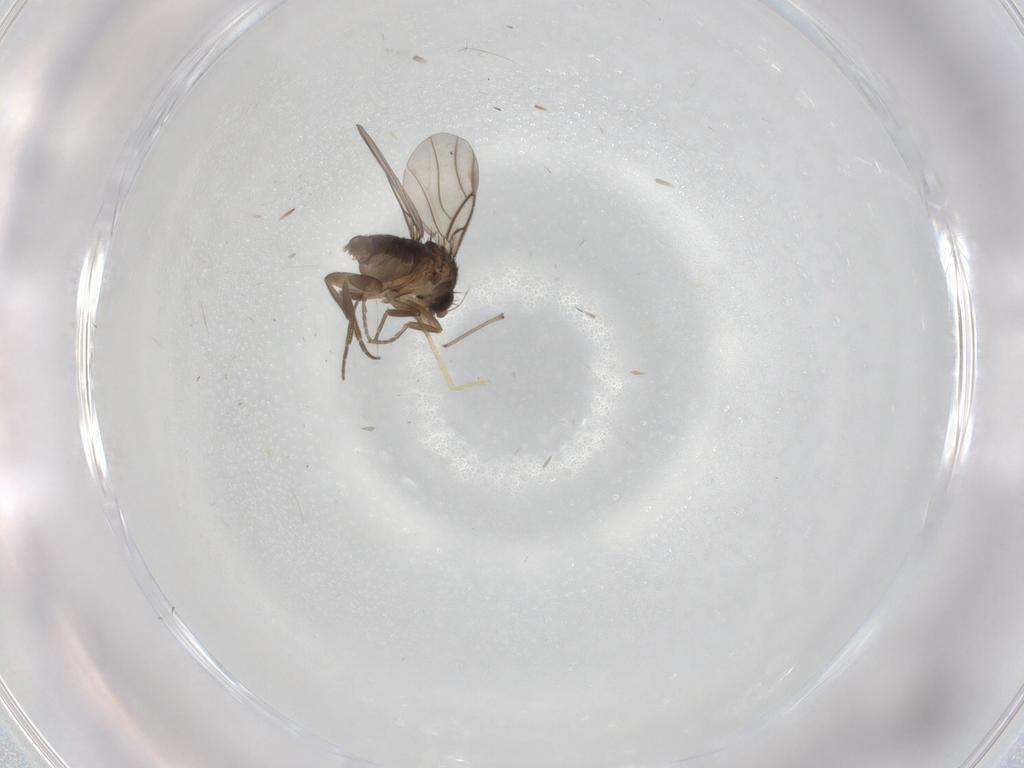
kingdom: Animalia
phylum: Arthropoda
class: Insecta
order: Diptera
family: Phoridae
